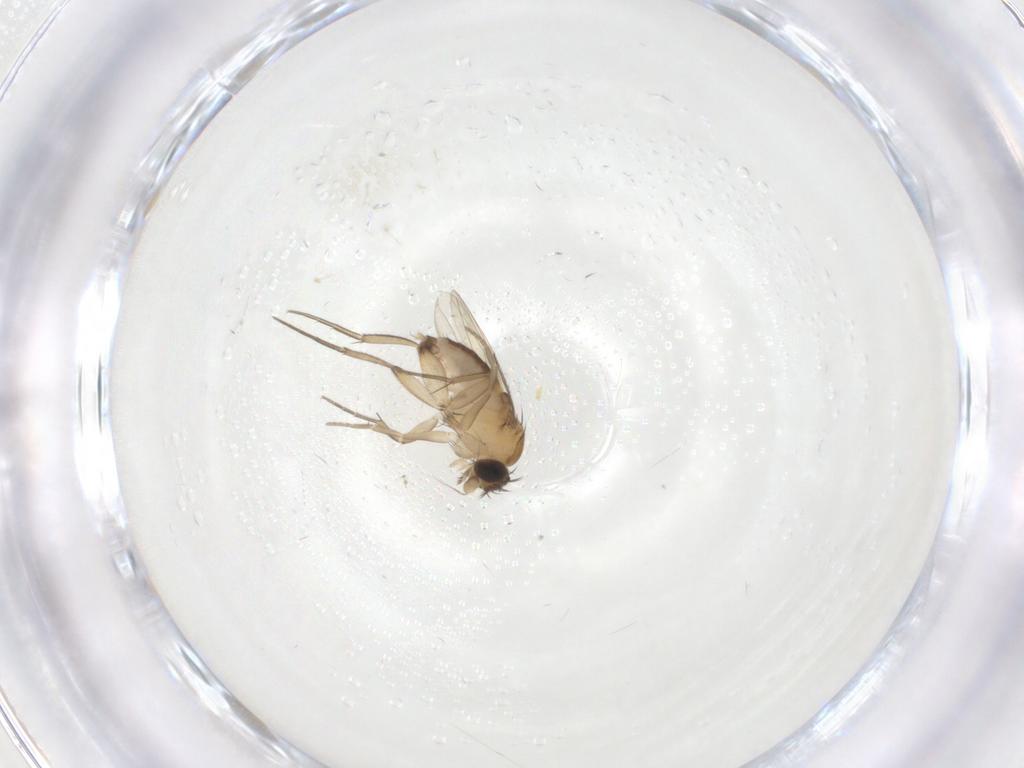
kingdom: Animalia
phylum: Arthropoda
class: Insecta
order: Diptera
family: Phoridae
